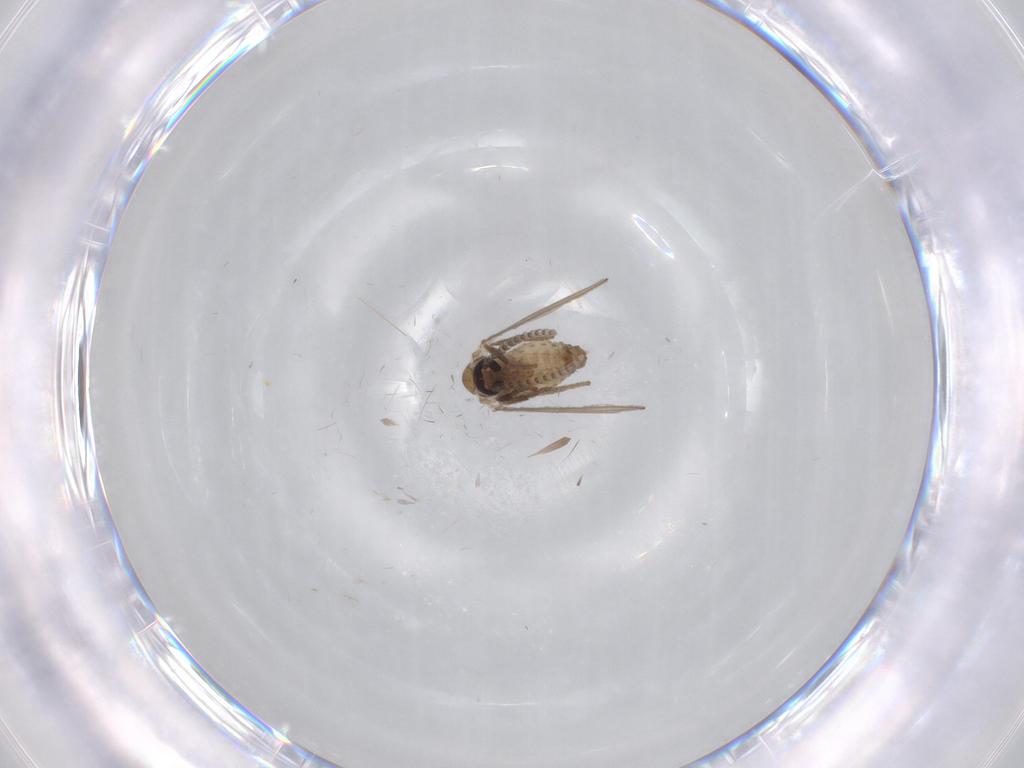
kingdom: Animalia
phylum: Arthropoda
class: Insecta
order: Diptera
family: Psychodidae
